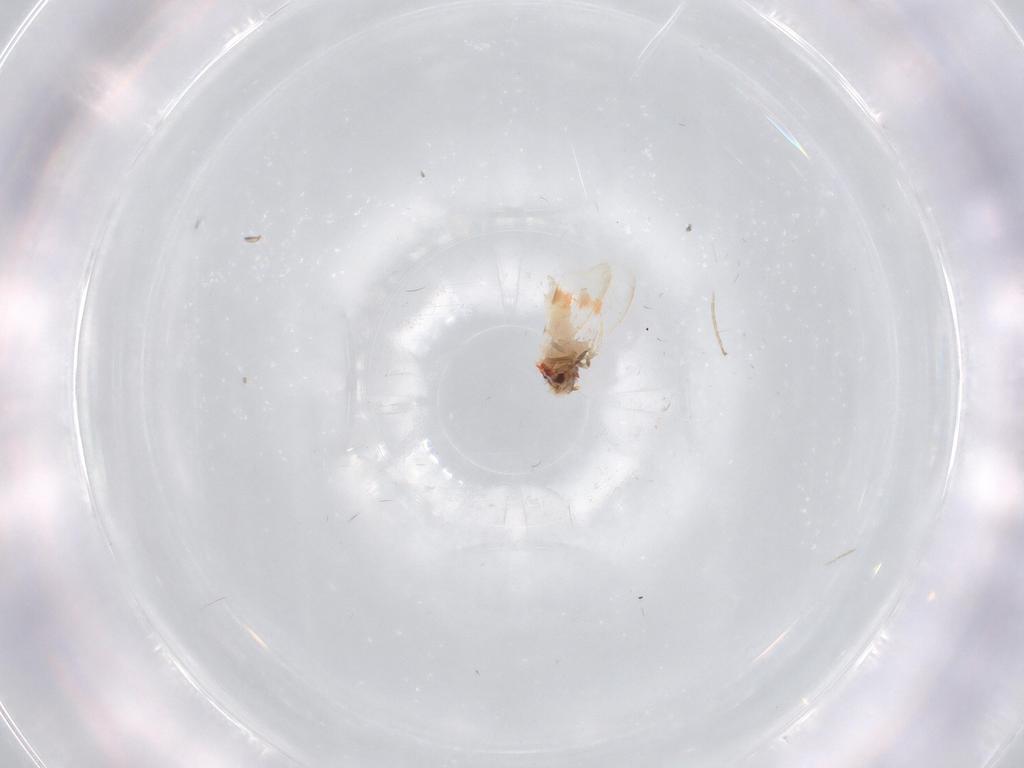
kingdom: Animalia
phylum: Arthropoda
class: Insecta
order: Hemiptera
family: Aleyrodidae
